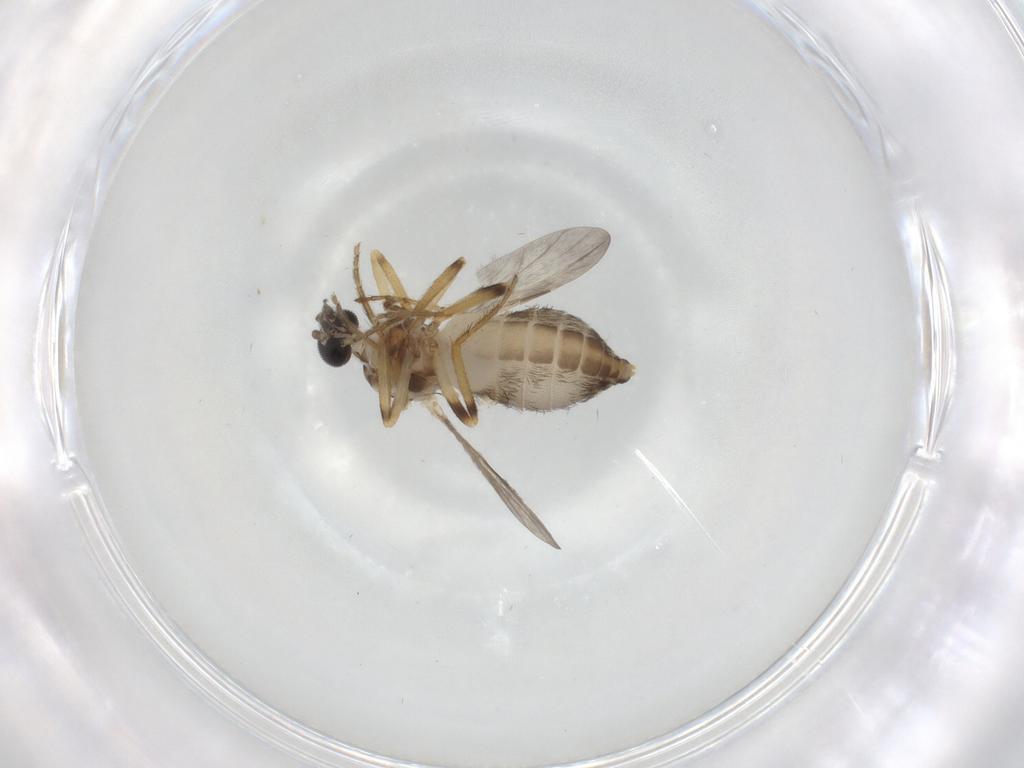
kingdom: Animalia
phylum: Arthropoda
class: Insecta
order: Diptera
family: Ceratopogonidae
